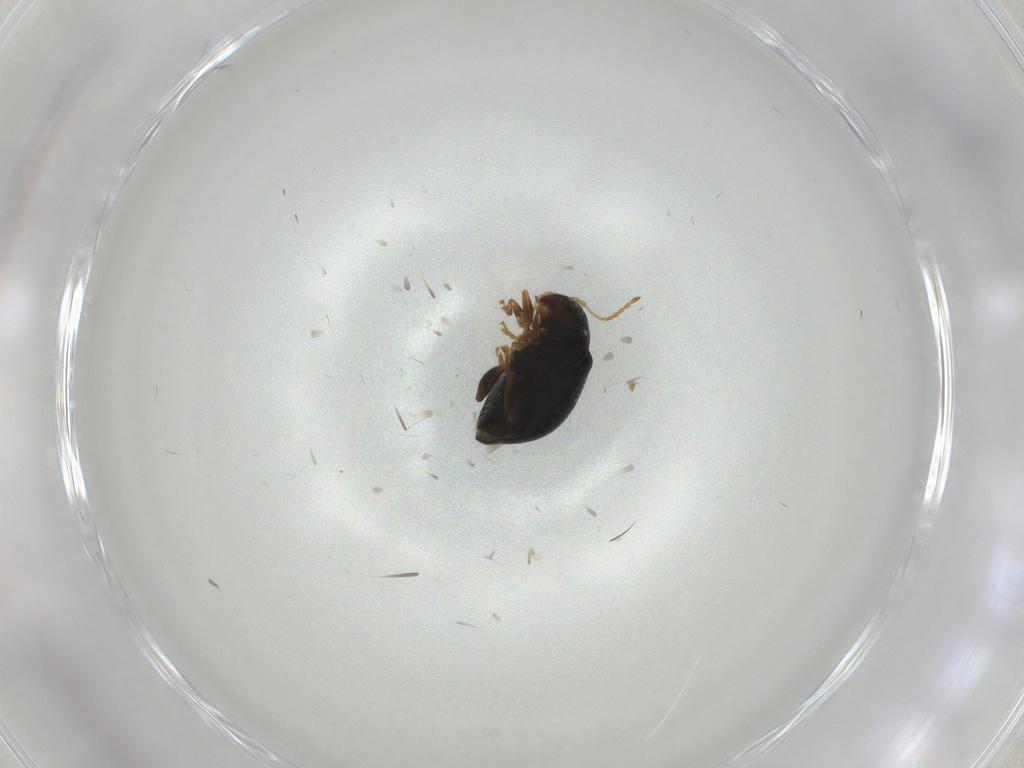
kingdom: Animalia
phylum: Arthropoda
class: Insecta
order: Coleoptera
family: Chrysomelidae
